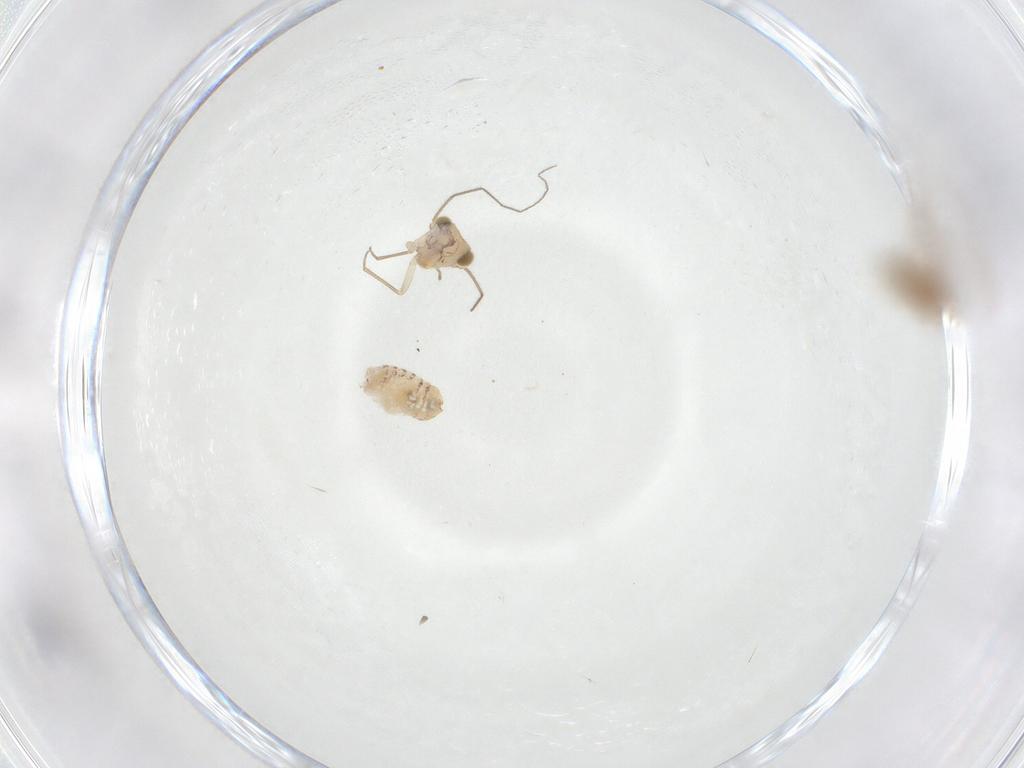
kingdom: Animalia
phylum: Arthropoda
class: Insecta
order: Psocodea
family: Lachesillidae
